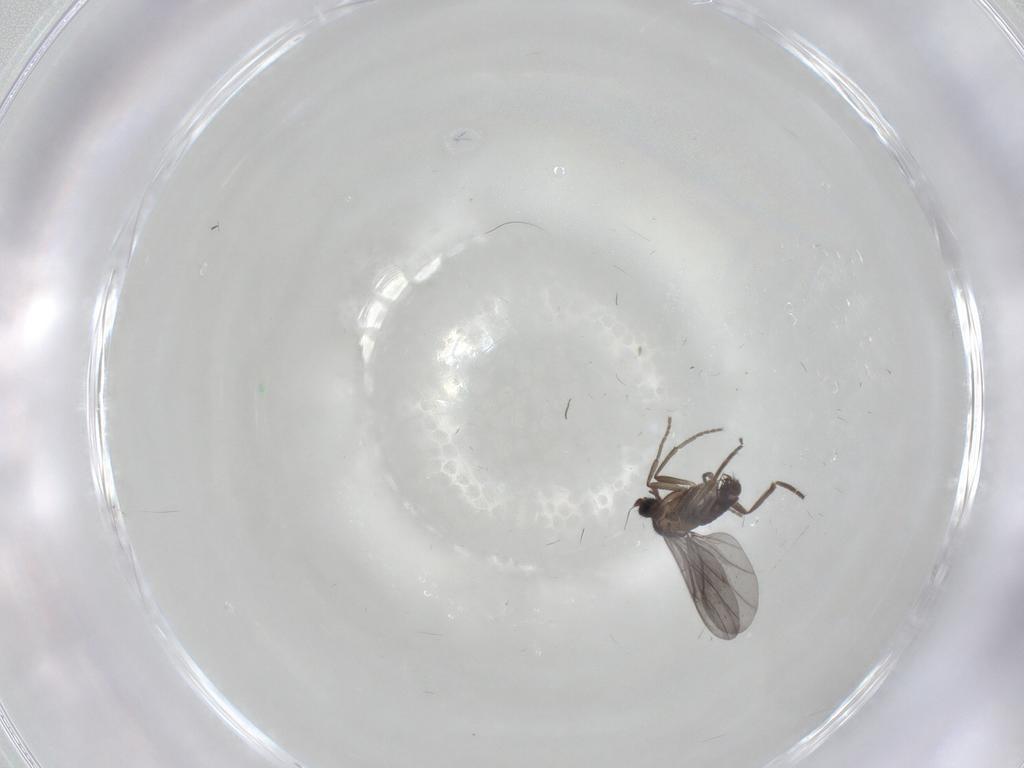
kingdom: Animalia
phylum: Arthropoda
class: Insecta
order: Diptera
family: Phoridae
